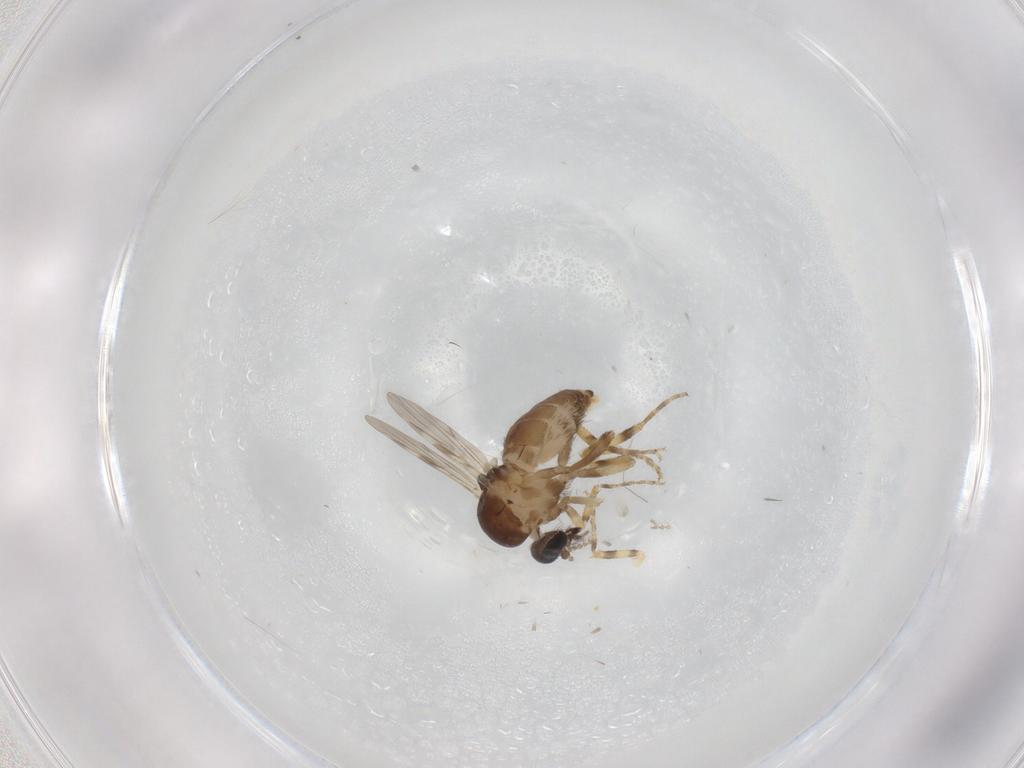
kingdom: Animalia
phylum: Arthropoda
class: Insecta
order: Diptera
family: Ceratopogonidae
